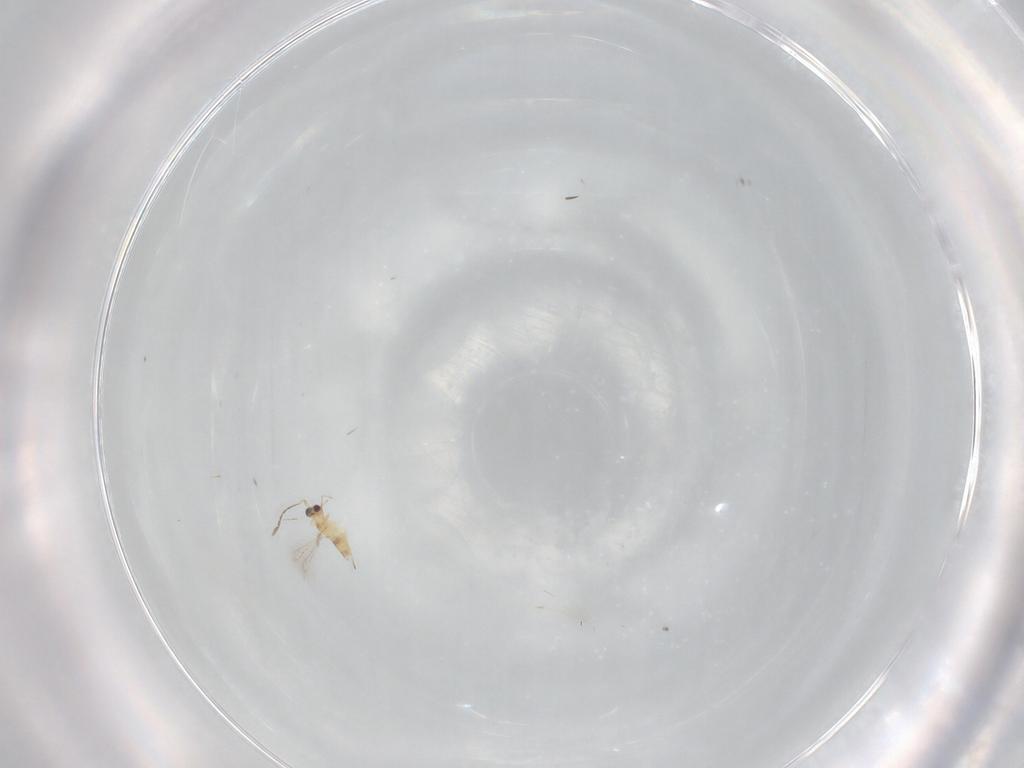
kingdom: Animalia
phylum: Arthropoda
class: Insecta
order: Hymenoptera
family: Mymaridae
